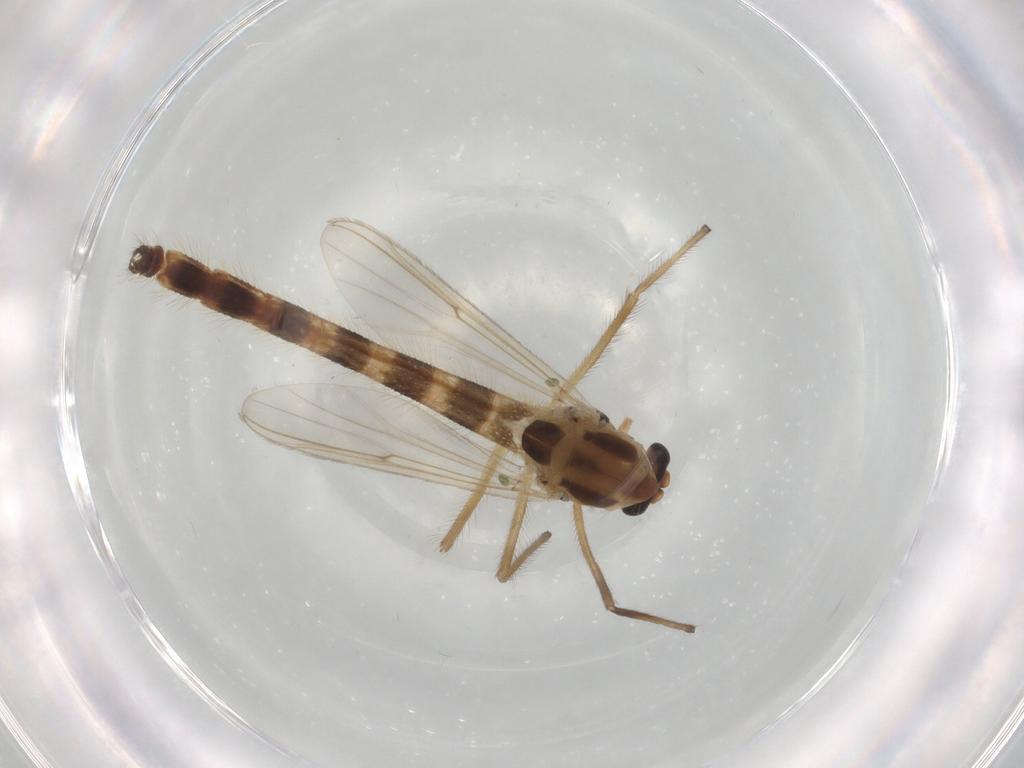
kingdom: Animalia
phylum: Arthropoda
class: Insecta
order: Diptera
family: Chironomidae
